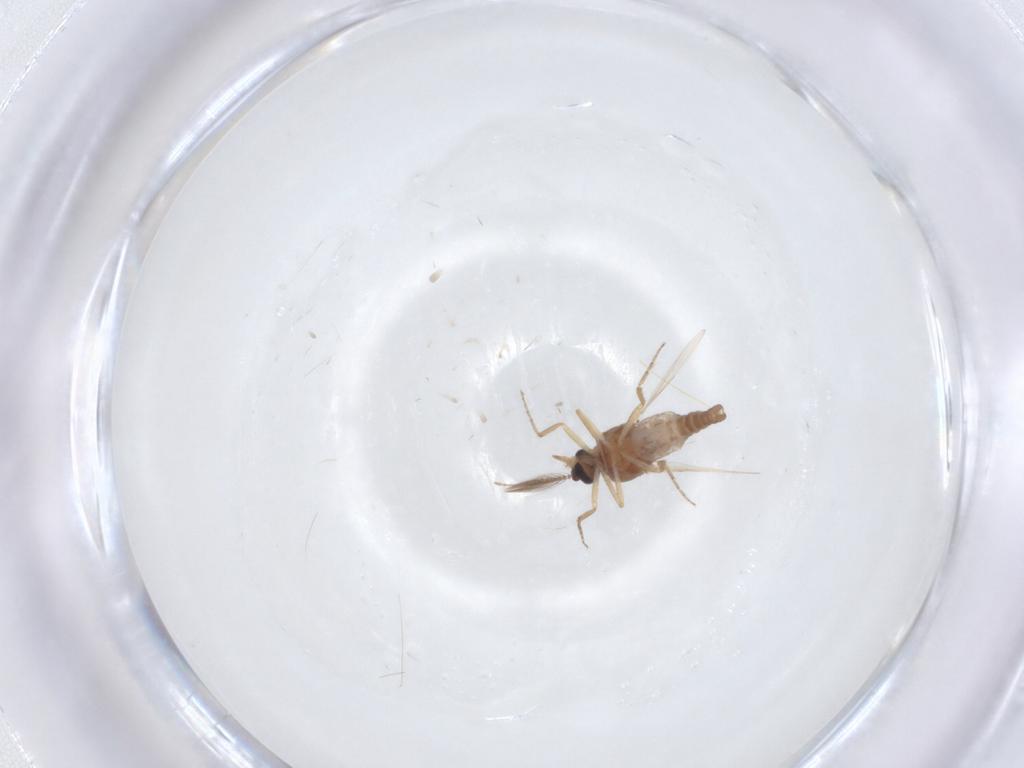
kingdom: Animalia
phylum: Arthropoda
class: Insecta
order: Diptera
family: Ceratopogonidae
